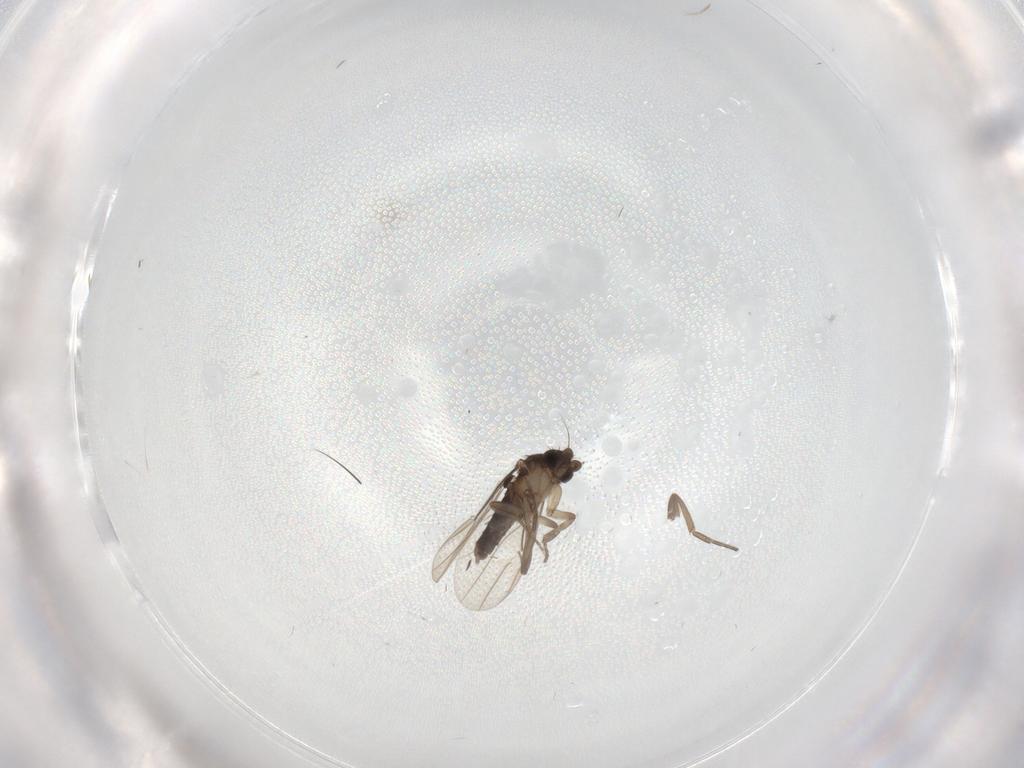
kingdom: Animalia
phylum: Arthropoda
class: Insecta
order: Diptera
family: Phoridae
